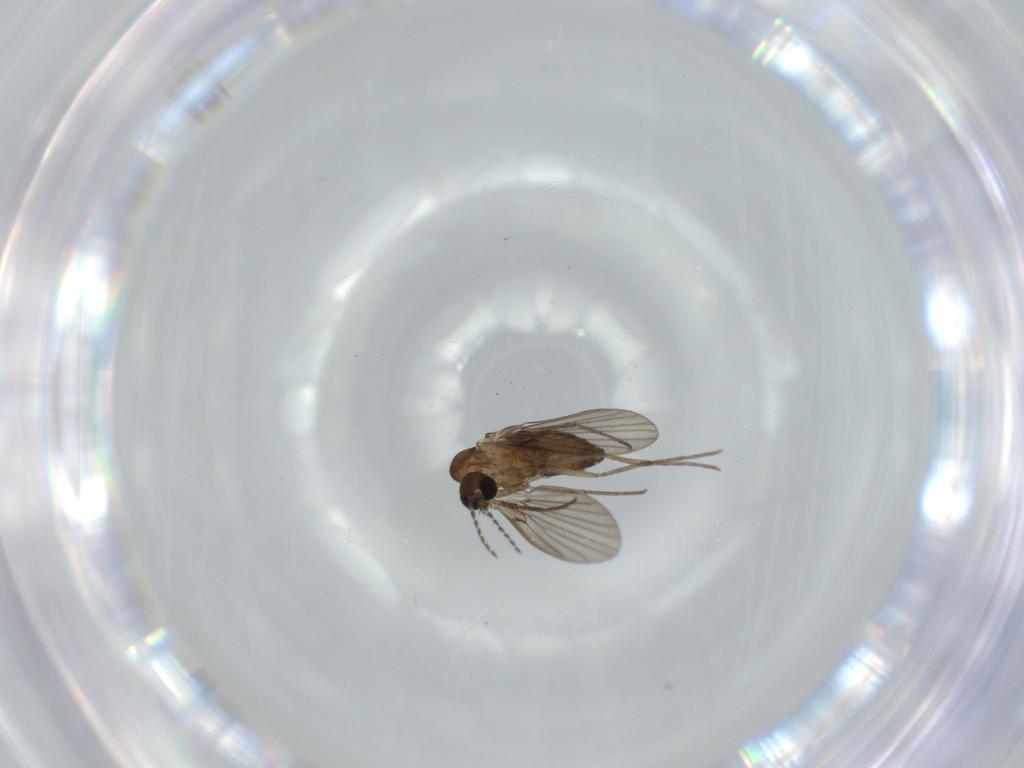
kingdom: Animalia
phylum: Arthropoda
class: Insecta
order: Diptera
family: Psychodidae
